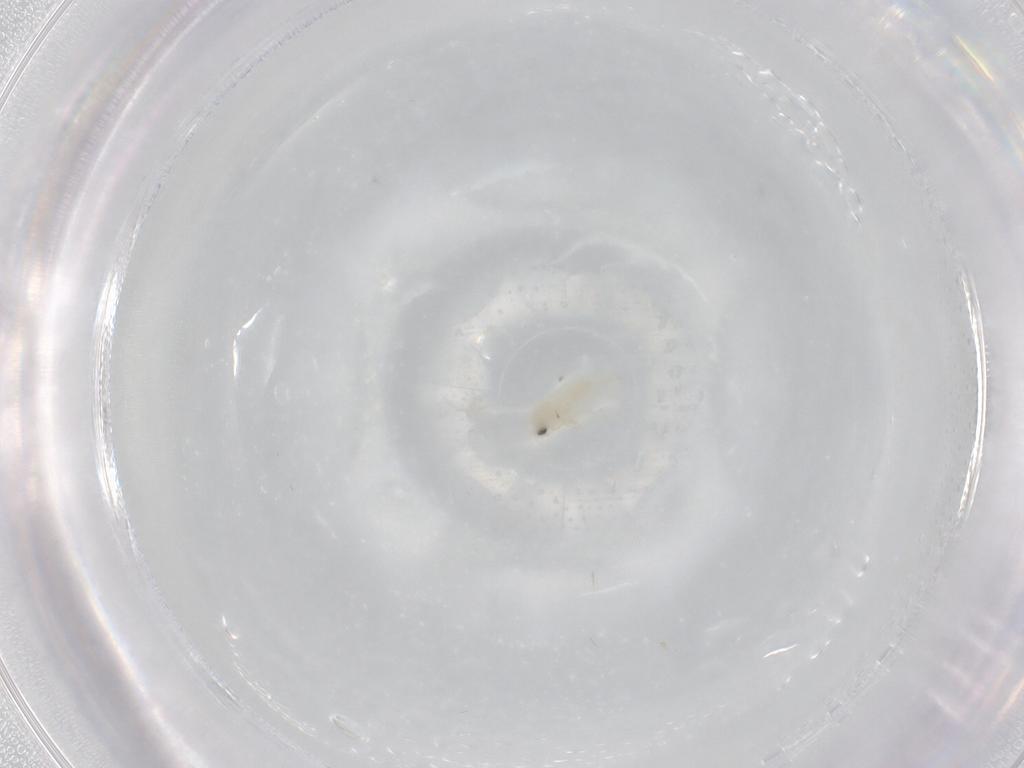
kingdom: Animalia
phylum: Arthropoda
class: Insecta
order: Hemiptera
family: Aleyrodidae
